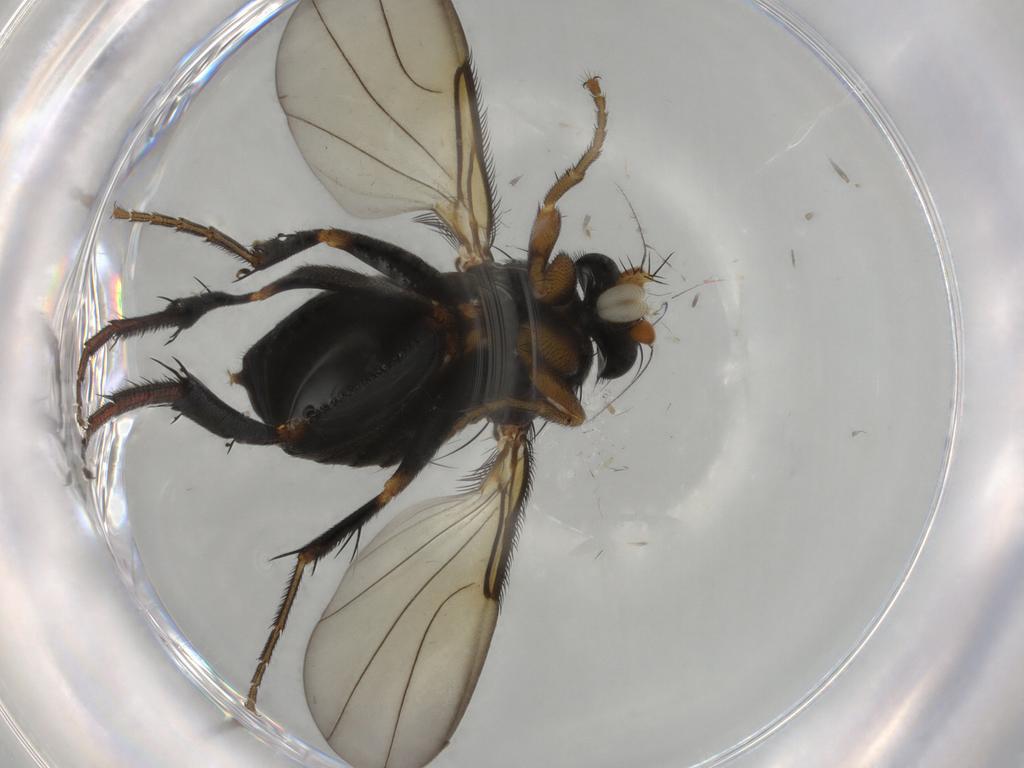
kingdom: Animalia
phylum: Arthropoda
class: Insecta
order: Diptera
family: Phoridae
